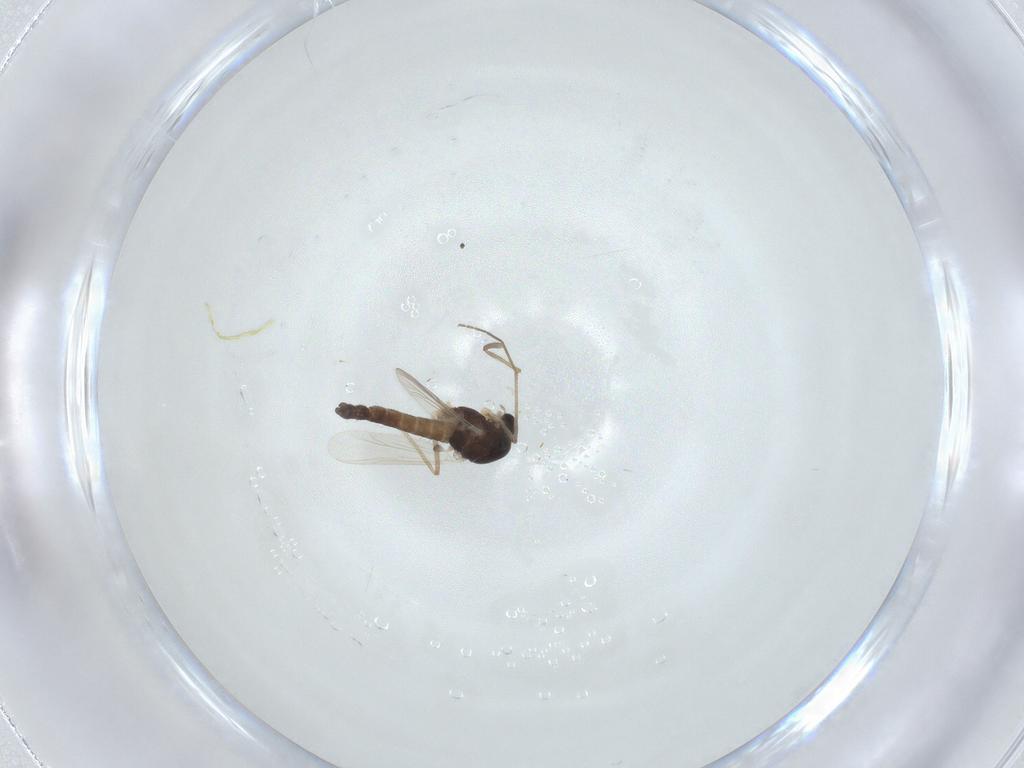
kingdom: Animalia
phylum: Arthropoda
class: Insecta
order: Diptera
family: Chironomidae
